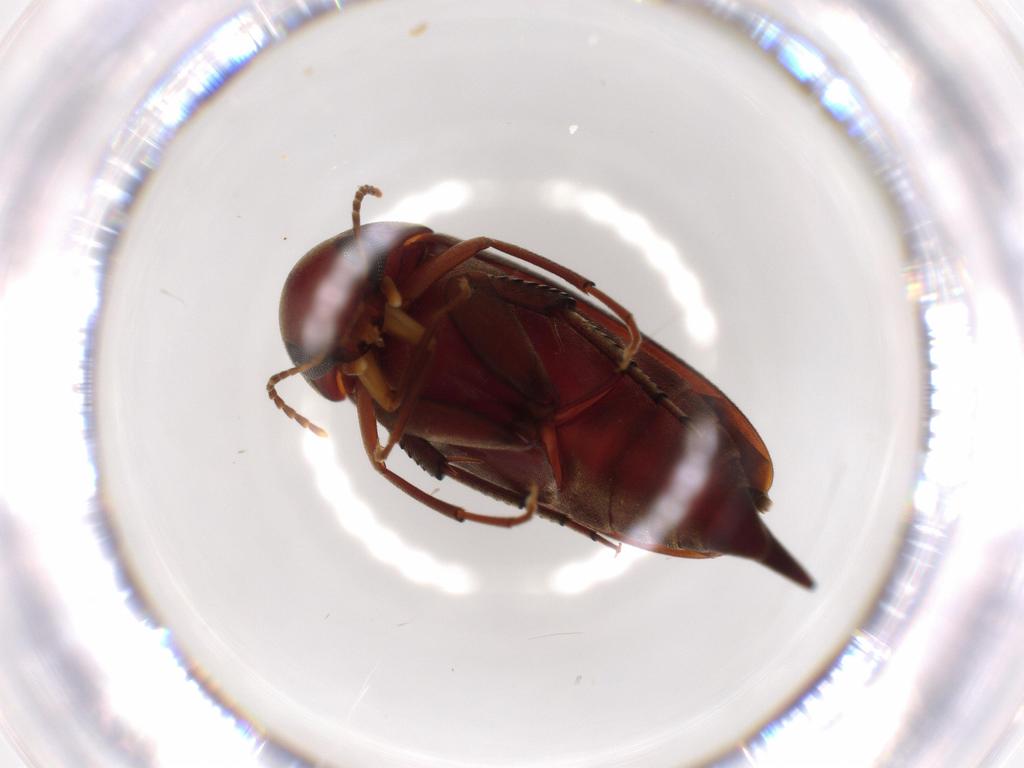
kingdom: Animalia
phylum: Arthropoda
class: Insecta
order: Coleoptera
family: Mordellidae
